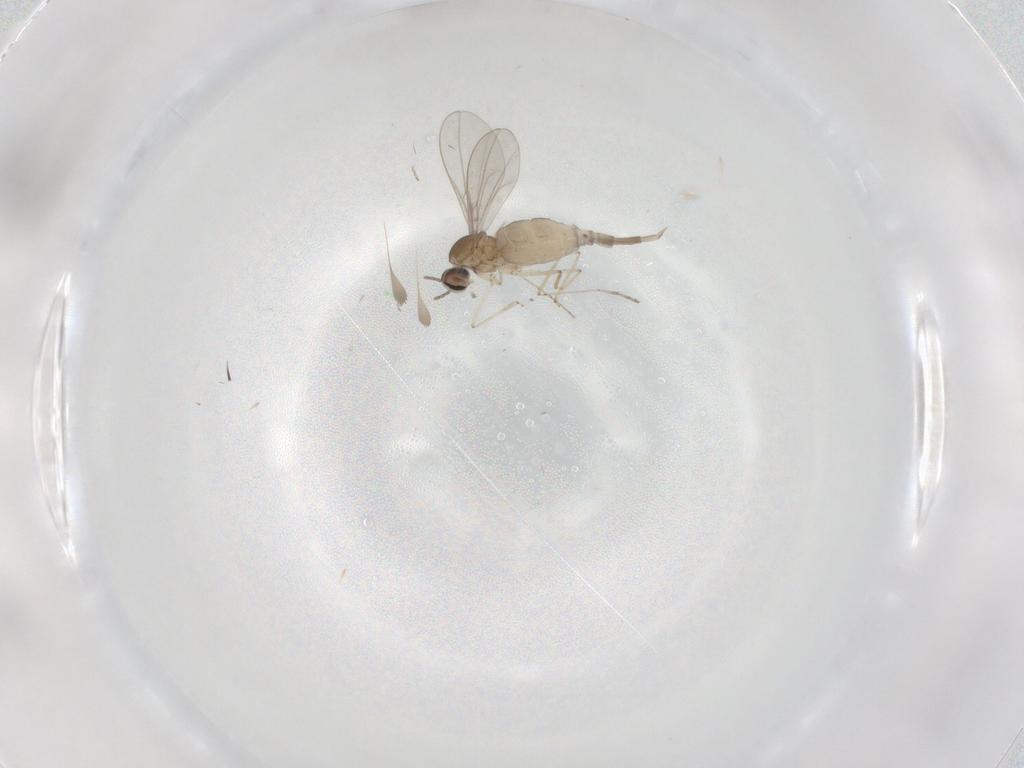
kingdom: Animalia
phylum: Arthropoda
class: Insecta
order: Diptera
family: Cecidomyiidae
